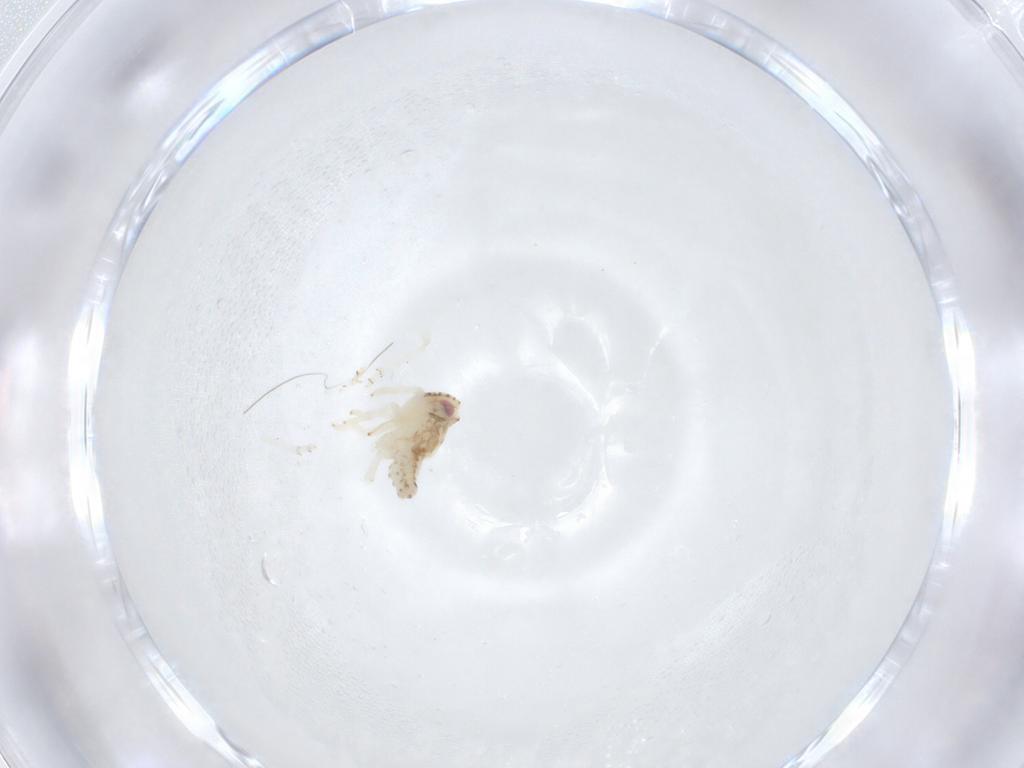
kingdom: Animalia
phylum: Arthropoda
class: Insecta
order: Hemiptera
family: Nogodinidae
